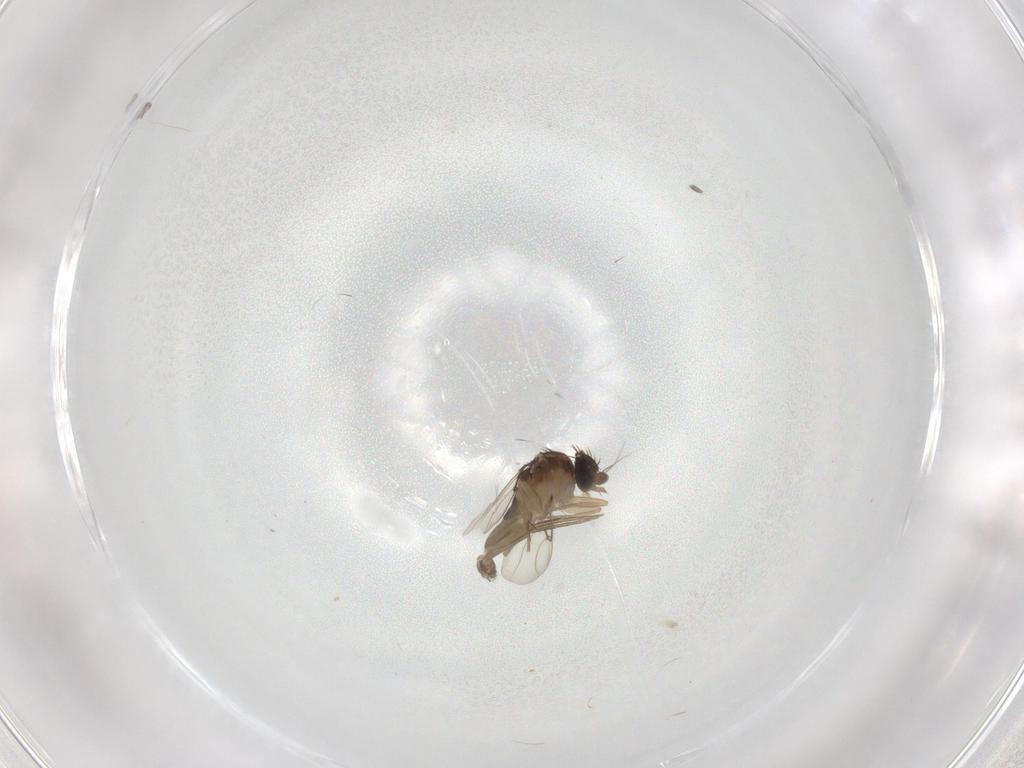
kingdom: Animalia
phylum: Arthropoda
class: Insecta
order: Diptera
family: Phoridae
